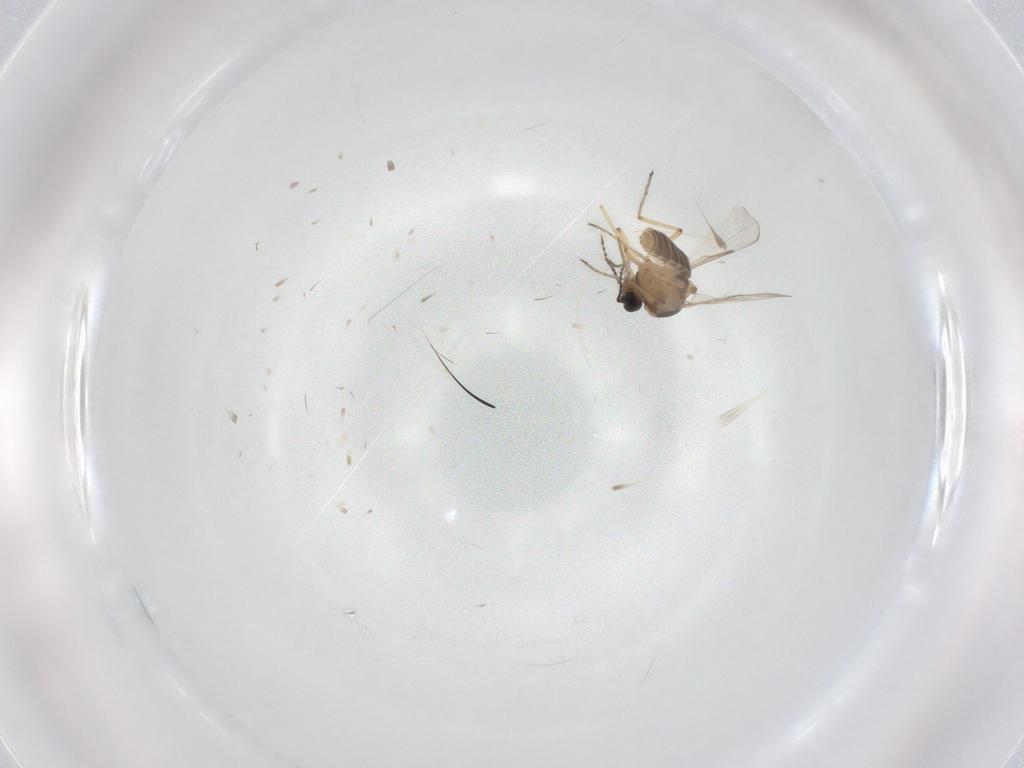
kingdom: Animalia
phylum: Arthropoda
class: Insecta
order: Diptera
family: Ceratopogonidae
